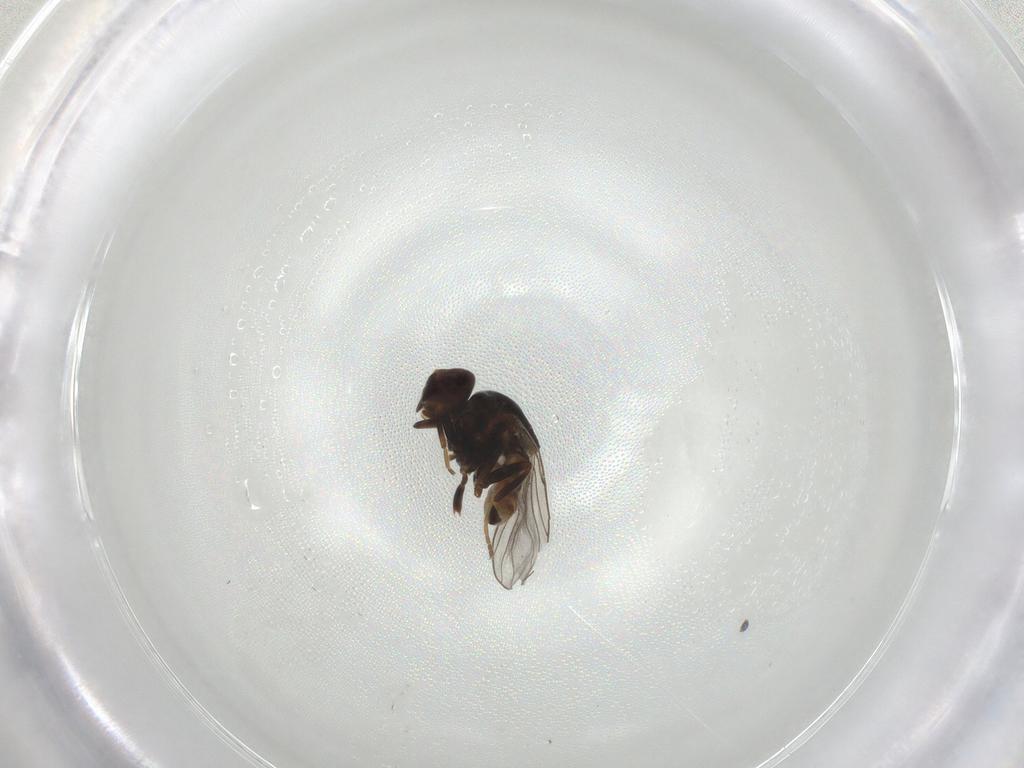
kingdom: Animalia
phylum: Arthropoda
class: Insecta
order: Diptera
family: Chloropidae
